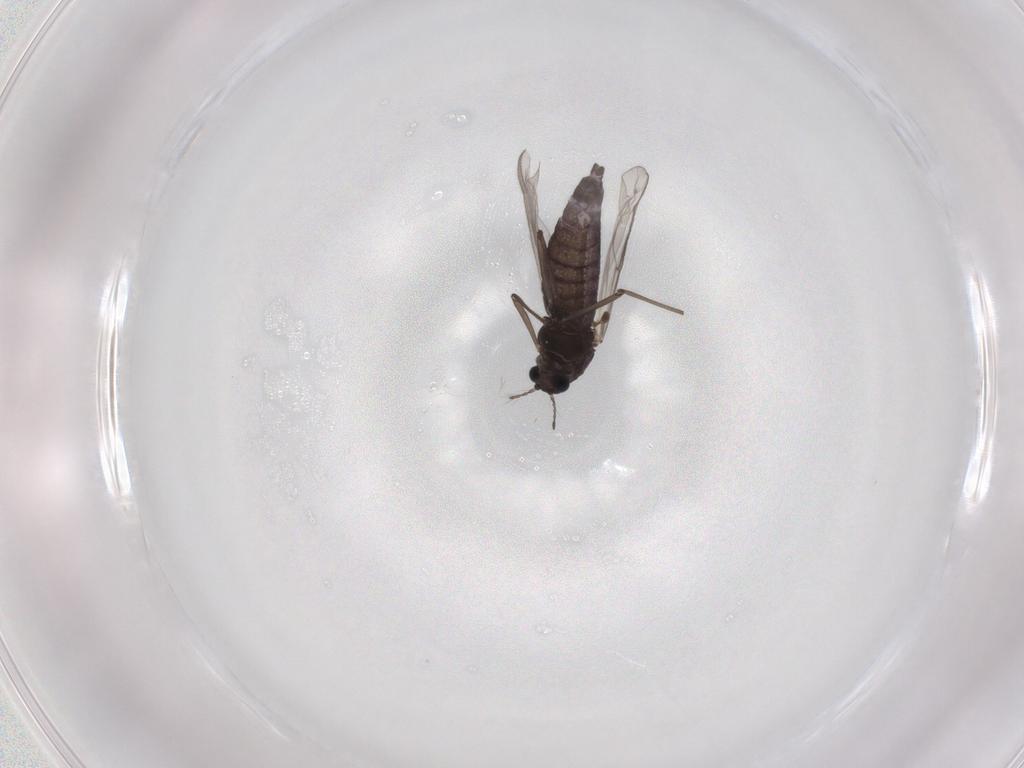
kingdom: Animalia
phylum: Arthropoda
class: Insecta
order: Diptera
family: Chironomidae
